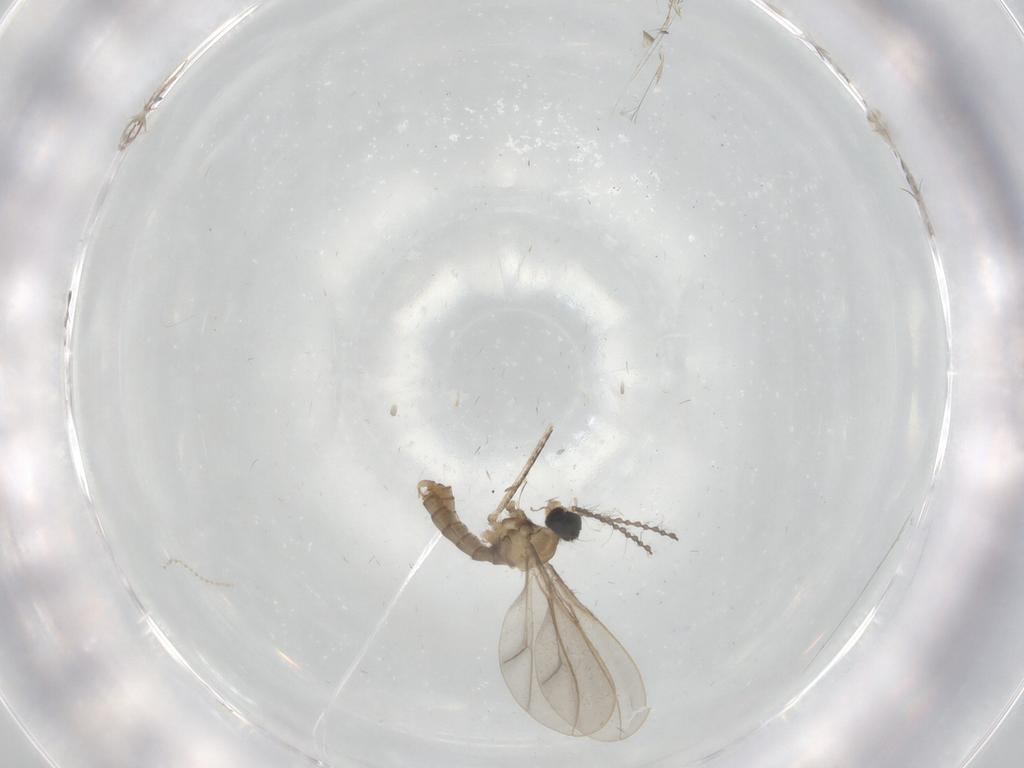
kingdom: Animalia
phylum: Arthropoda
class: Insecta
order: Diptera
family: Cecidomyiidae
